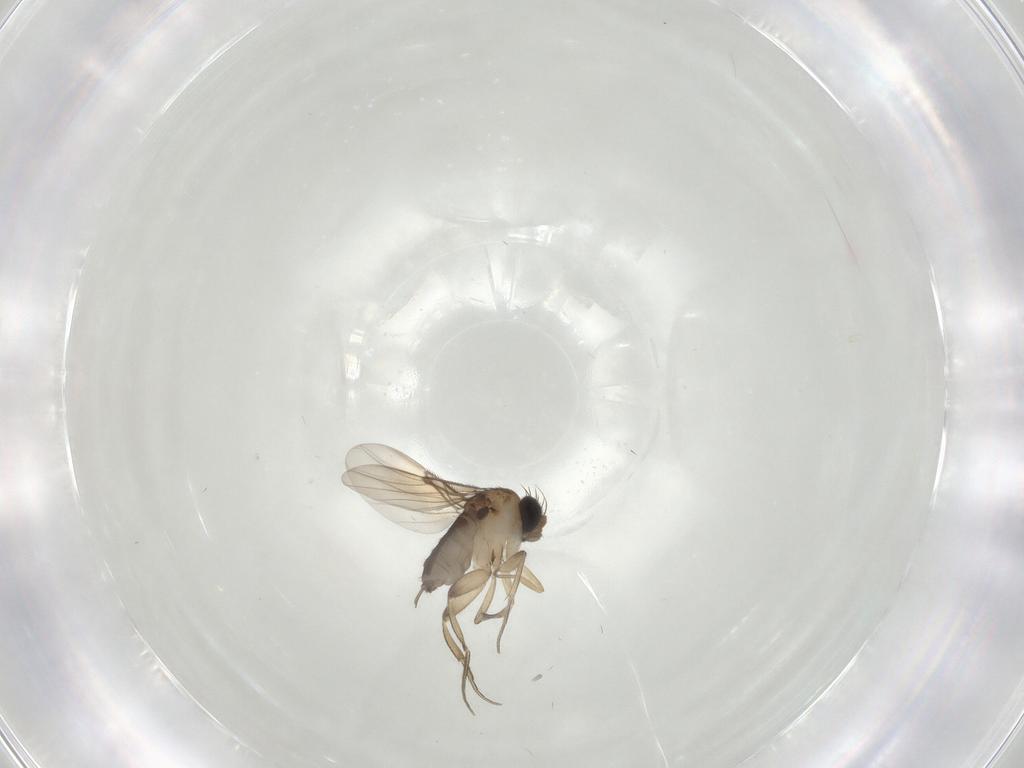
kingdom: Animalia
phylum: Arthropoda
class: Insecta
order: Diptera
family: Phoridae
